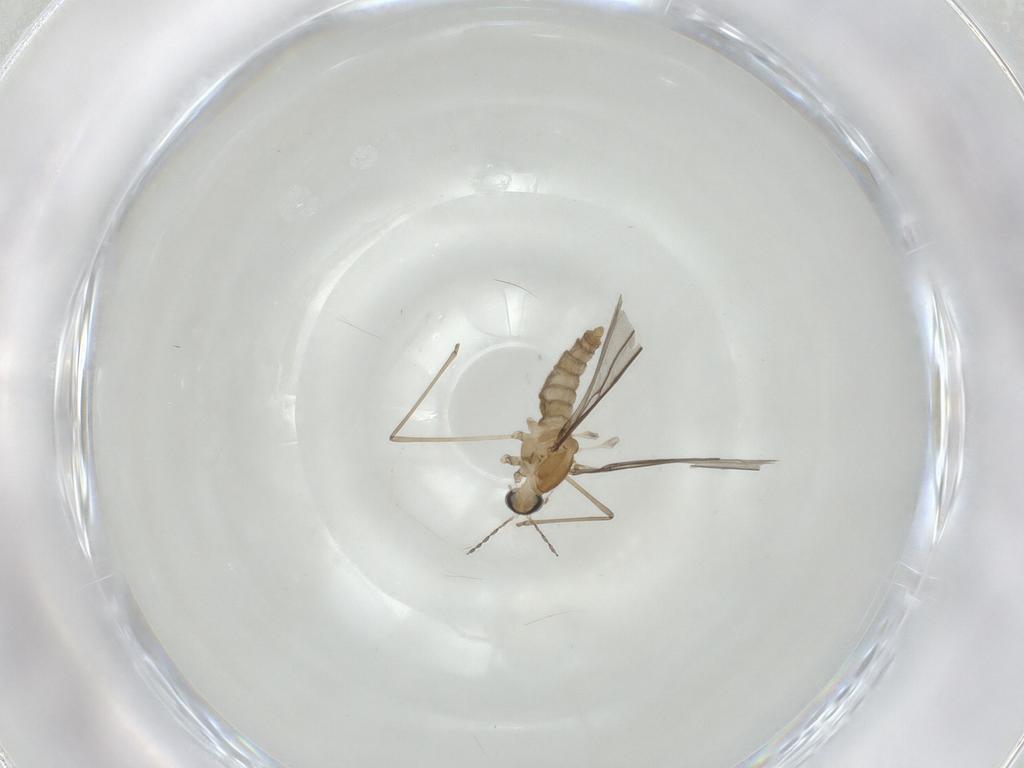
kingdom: Animalia
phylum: Arthropoda
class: Insecta
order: Diptera
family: Cecidomyiidae
